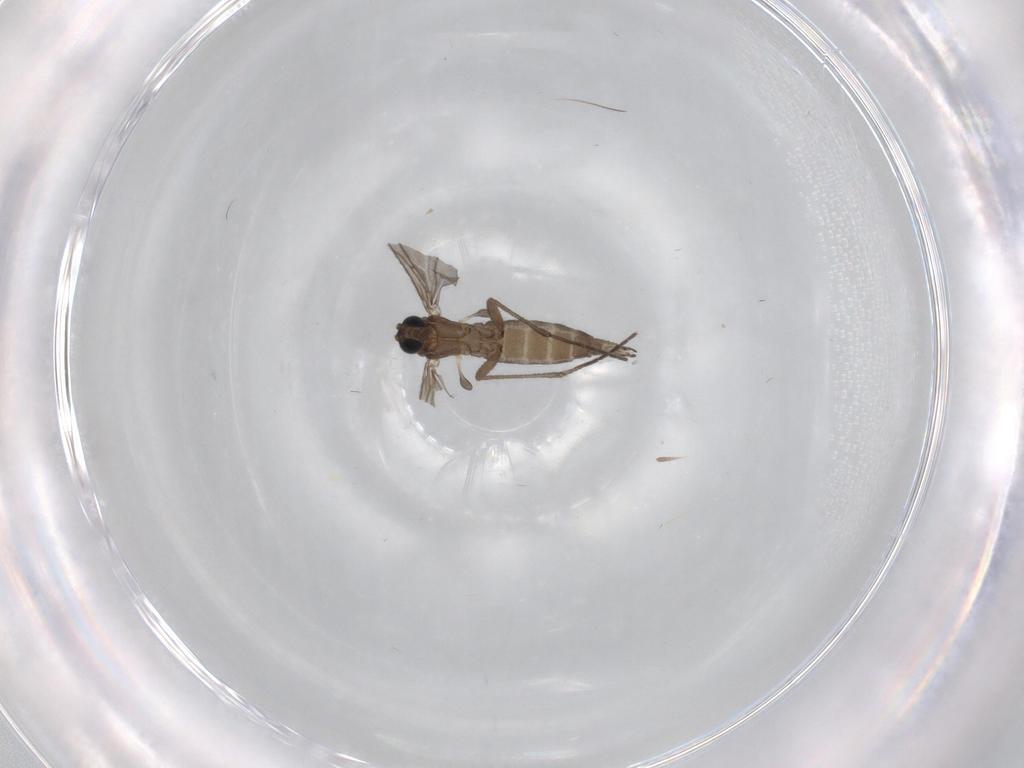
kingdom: Animalia
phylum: Arthropoda
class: Insecta
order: Diptera
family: Sciaridae
